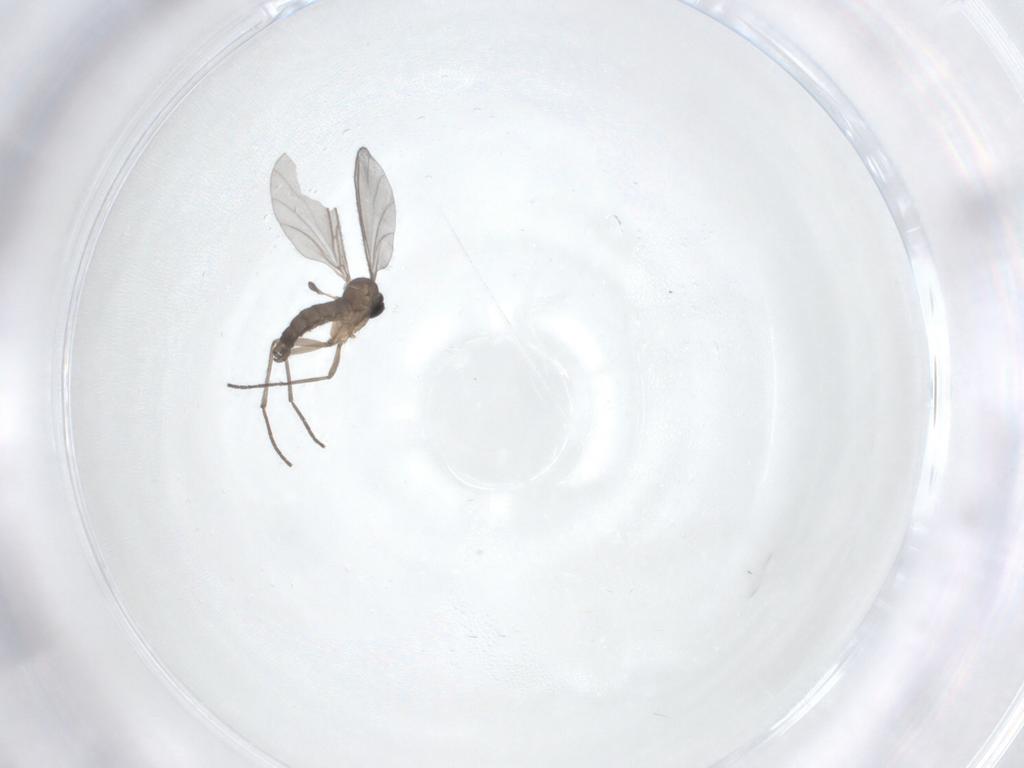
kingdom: Animalia
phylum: Arthropoda
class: Insecta
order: Diptera
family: Sciaridae
